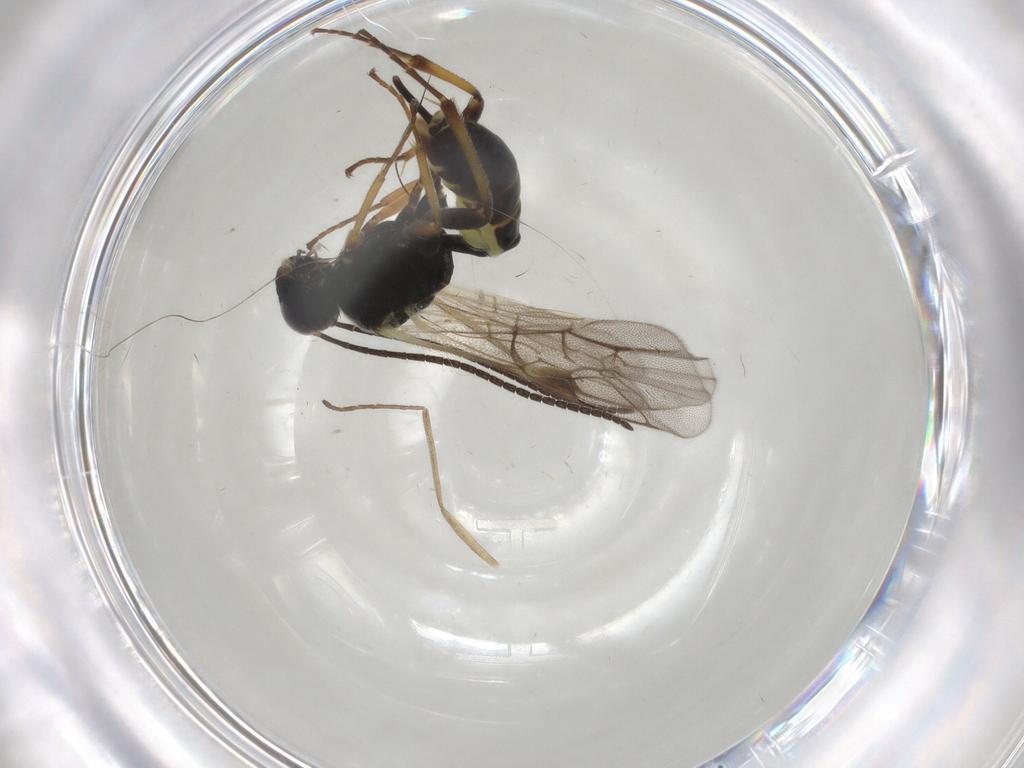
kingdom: Animalia
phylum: Arthropoda
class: Insecta
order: Hymenoptera
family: Ichneumonidae
